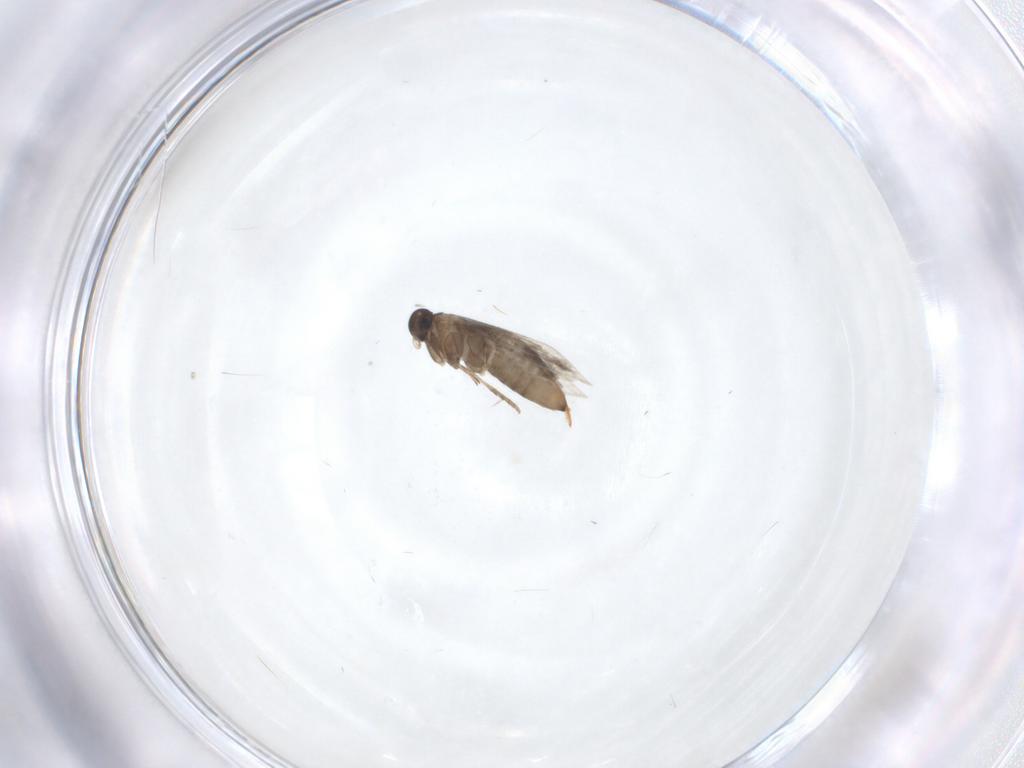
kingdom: Animalia
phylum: Arthropoda
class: Insecta
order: Lepidoptera
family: Heliozelidae
